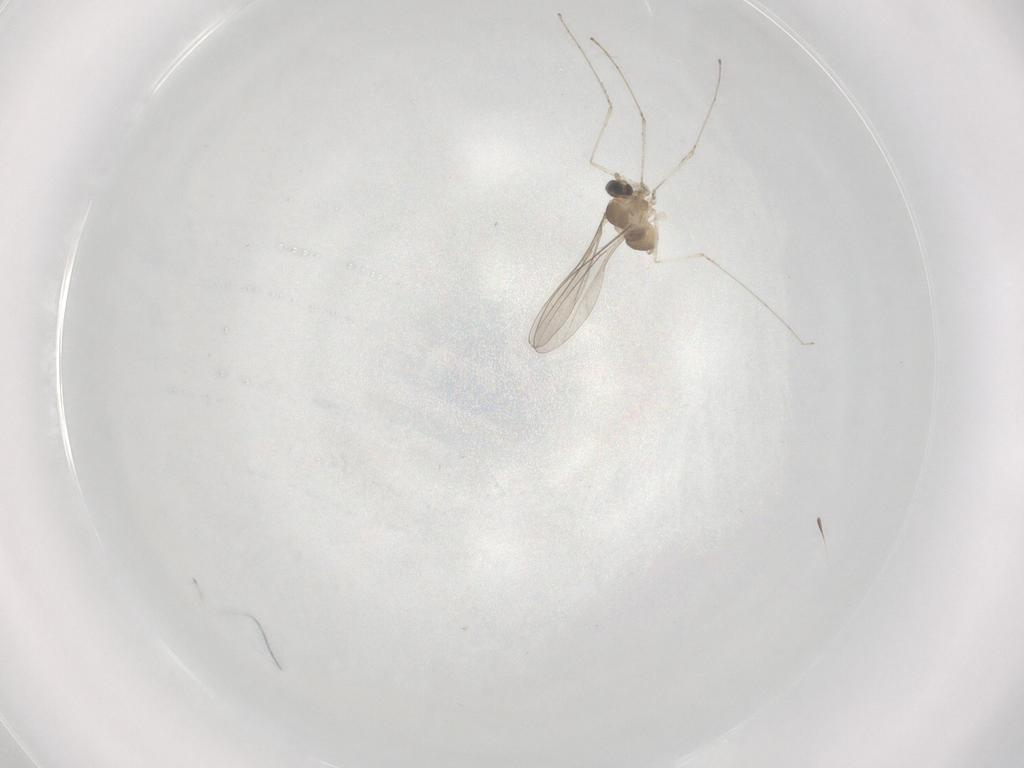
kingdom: Animalia
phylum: Arthropoda
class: Insecta
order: Diptera
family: Cecidomyiidae
